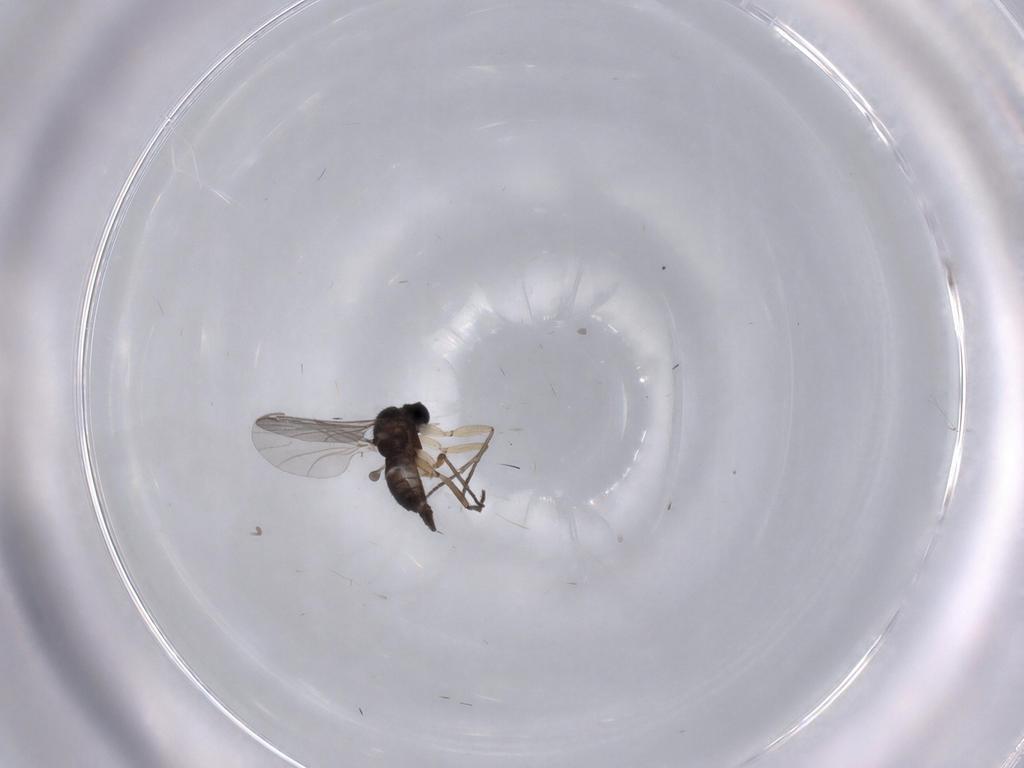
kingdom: Animalia
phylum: Arthropoda
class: Insecta
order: Diptera
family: Sciaridae
